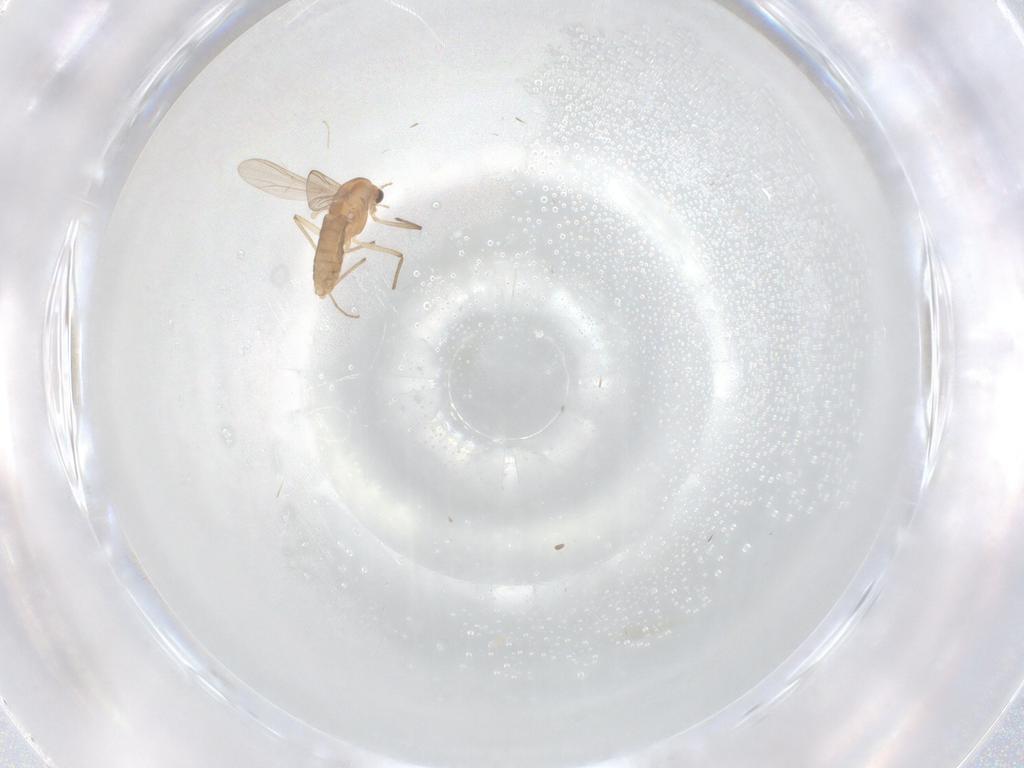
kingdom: Animalia
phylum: Arthropoda
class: Insecta
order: Diptera
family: Chironomidae
